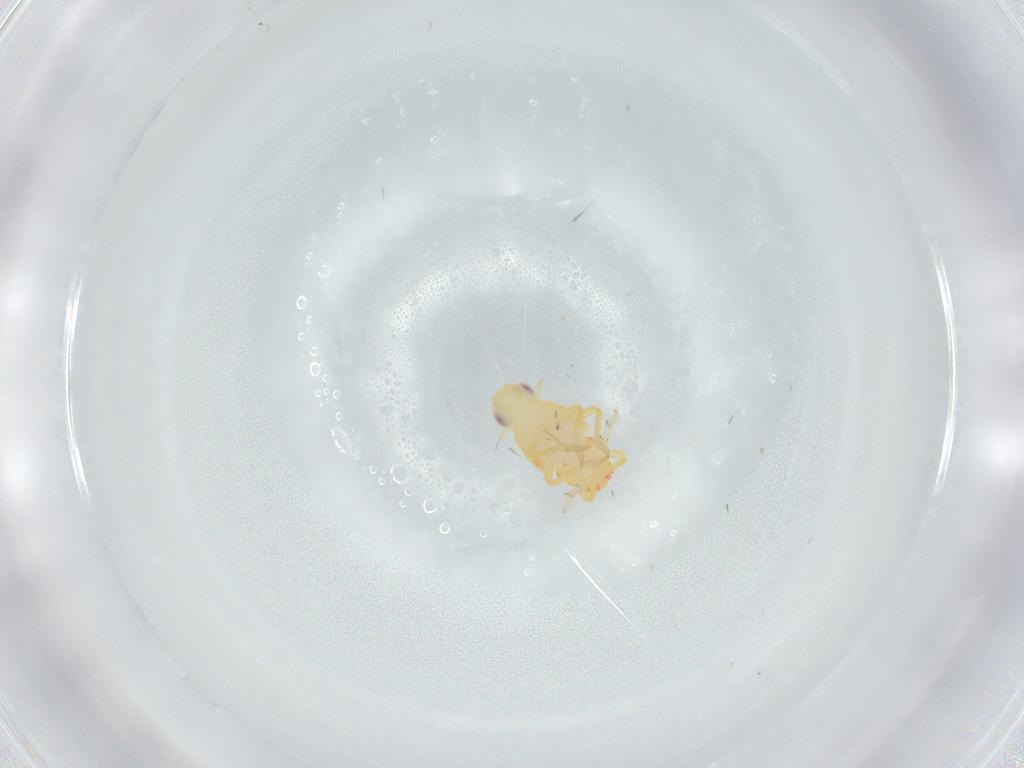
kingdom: Animalia
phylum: Arthropoda
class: Insecta
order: Hemiptera
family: Tropiduchidae
